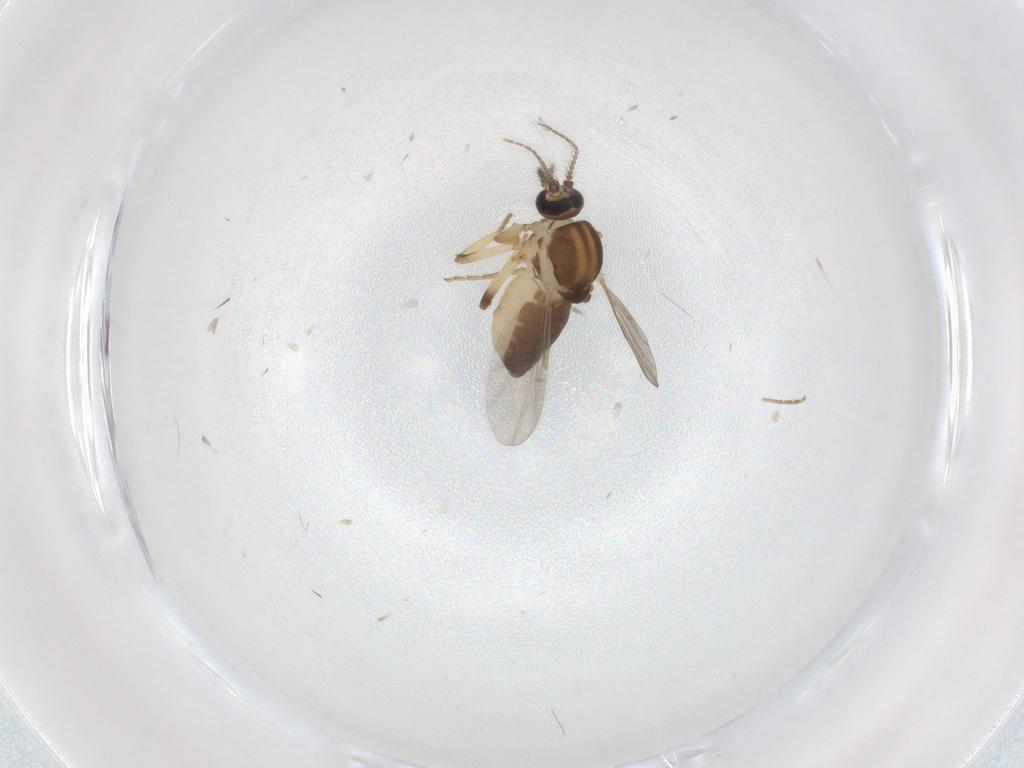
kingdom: Animalia
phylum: Arthropoda
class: Insecta
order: Diptera
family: Ceratopogonidae
